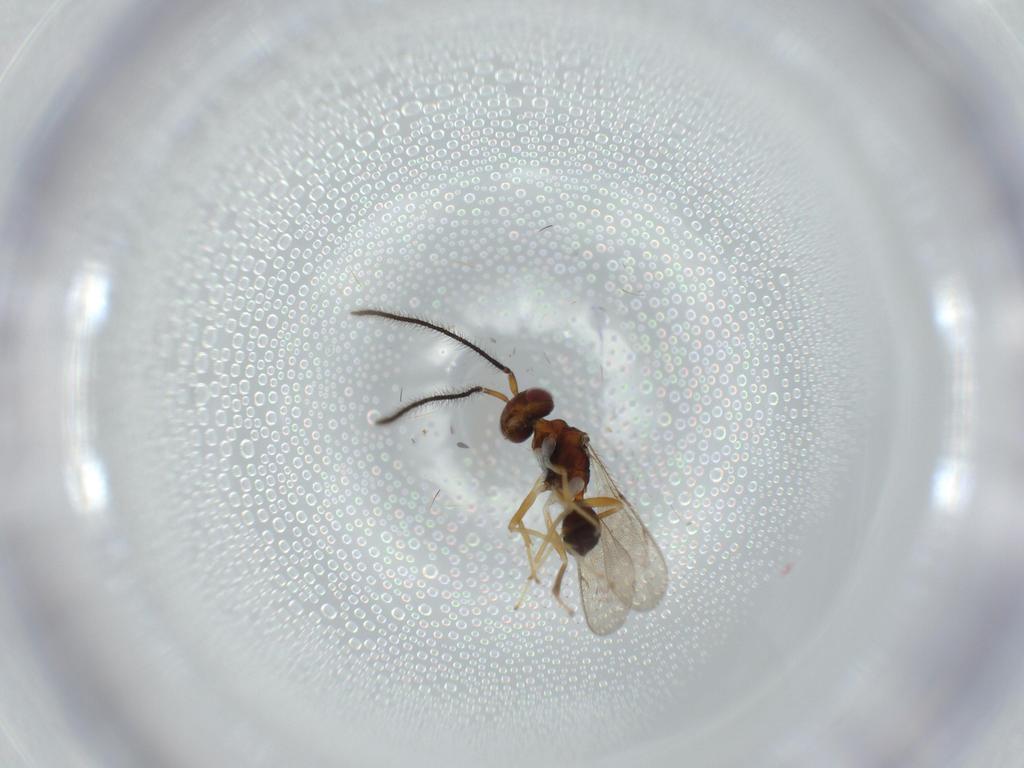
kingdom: Animalia
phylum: Arthropoda
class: Insecta
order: Hymenoptera
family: Diparidae
